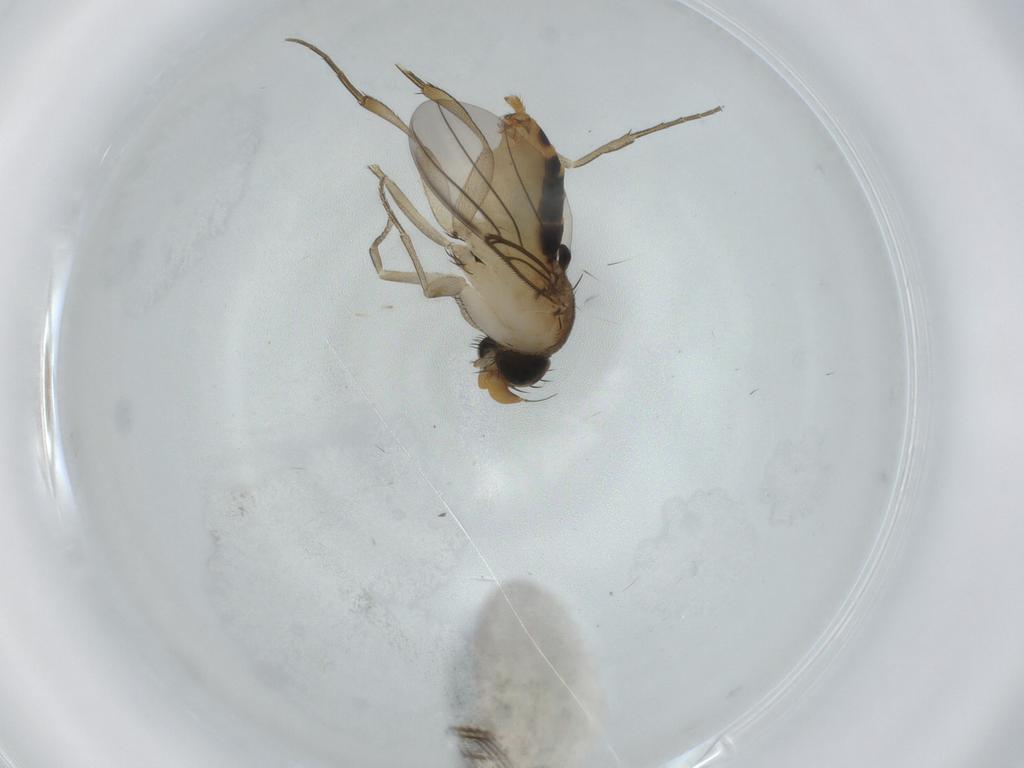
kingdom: Animalia
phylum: Arthropoda
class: Insecta
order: Diptera
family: Phoridae
